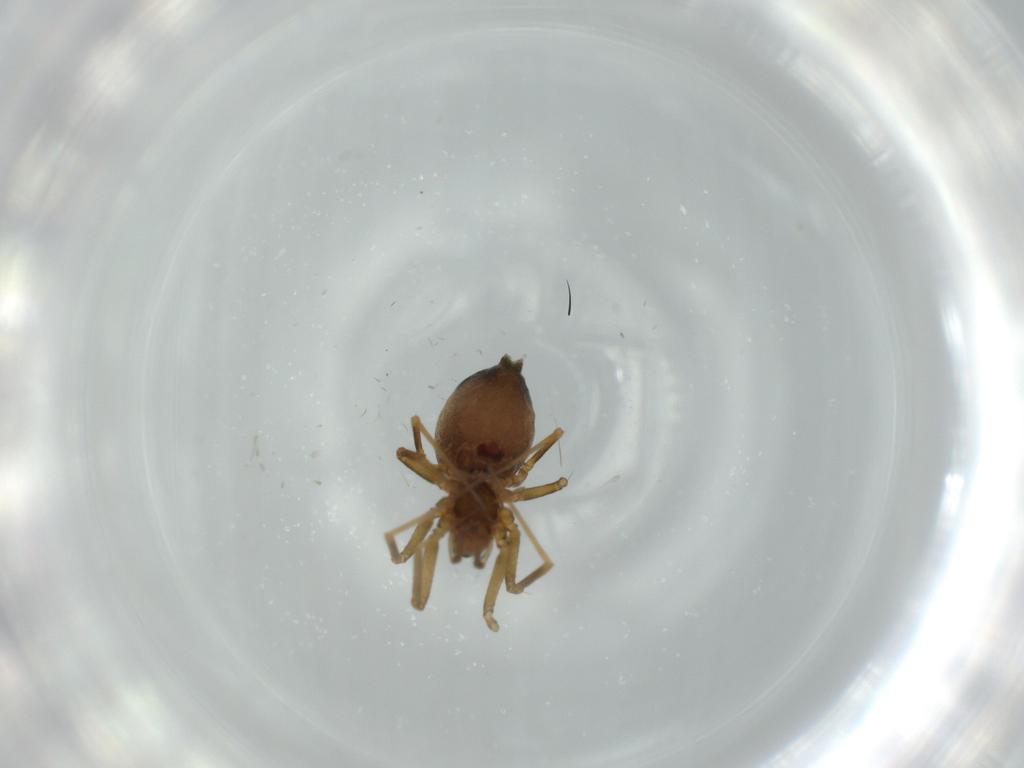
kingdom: Animalia
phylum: Arthropoda
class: Arachnida
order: Araneae
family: Linyphiidae
